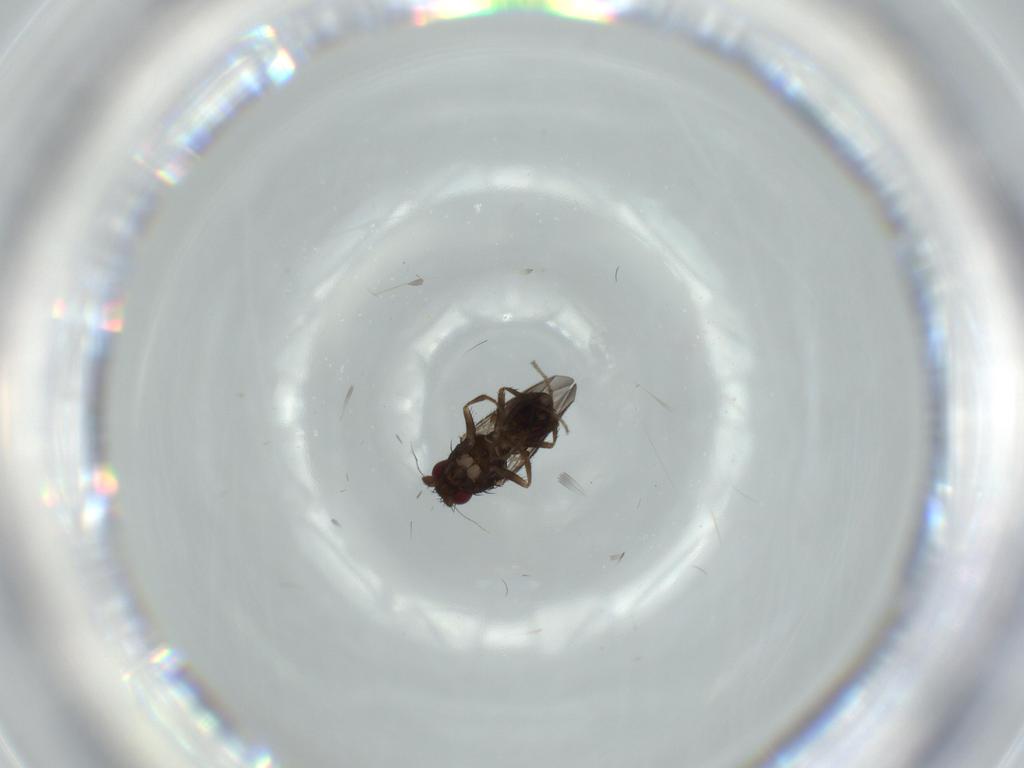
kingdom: Animalia
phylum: Arthropoda
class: Insecta
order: Diptera
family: Sphaeroceridae
